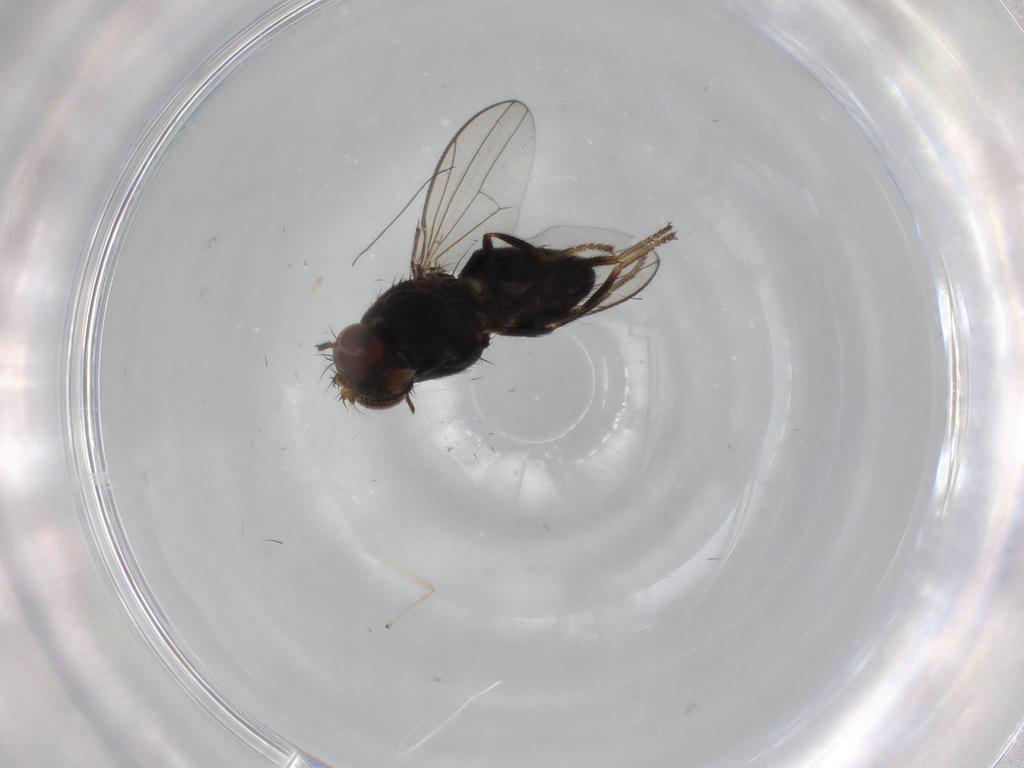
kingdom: Animalia
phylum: Arthropoda
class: Insecta
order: Diptera
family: Ephydridae
